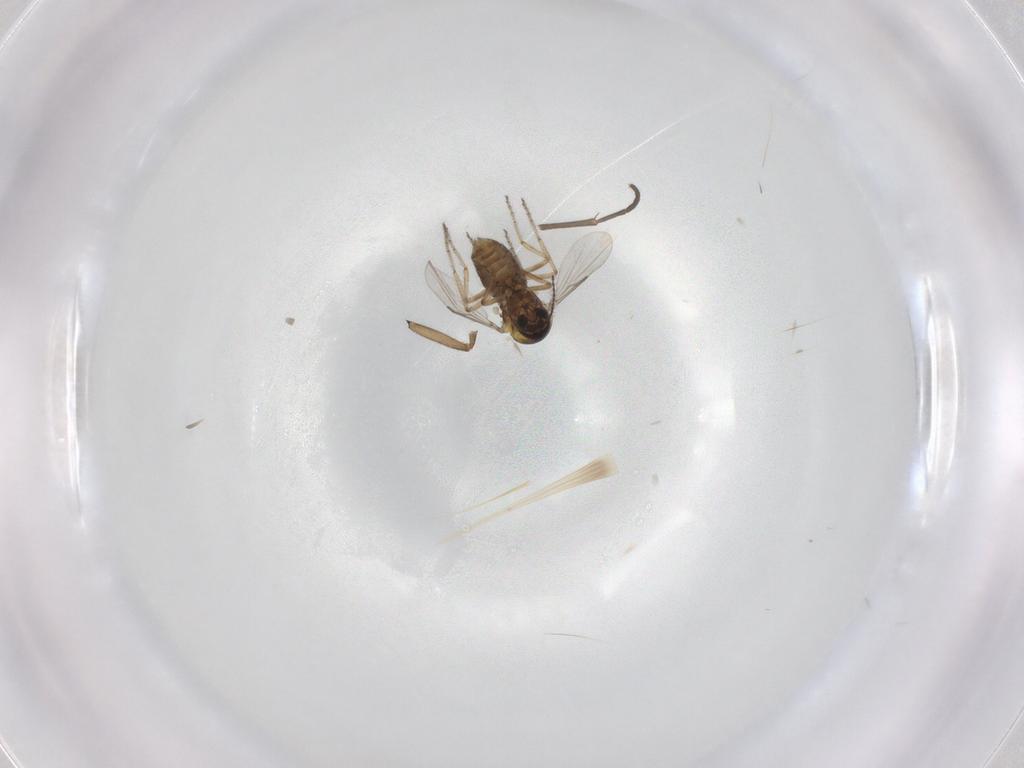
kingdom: Animalia
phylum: Arthropoda
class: Insecta
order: Diptera
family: Sciaridae
